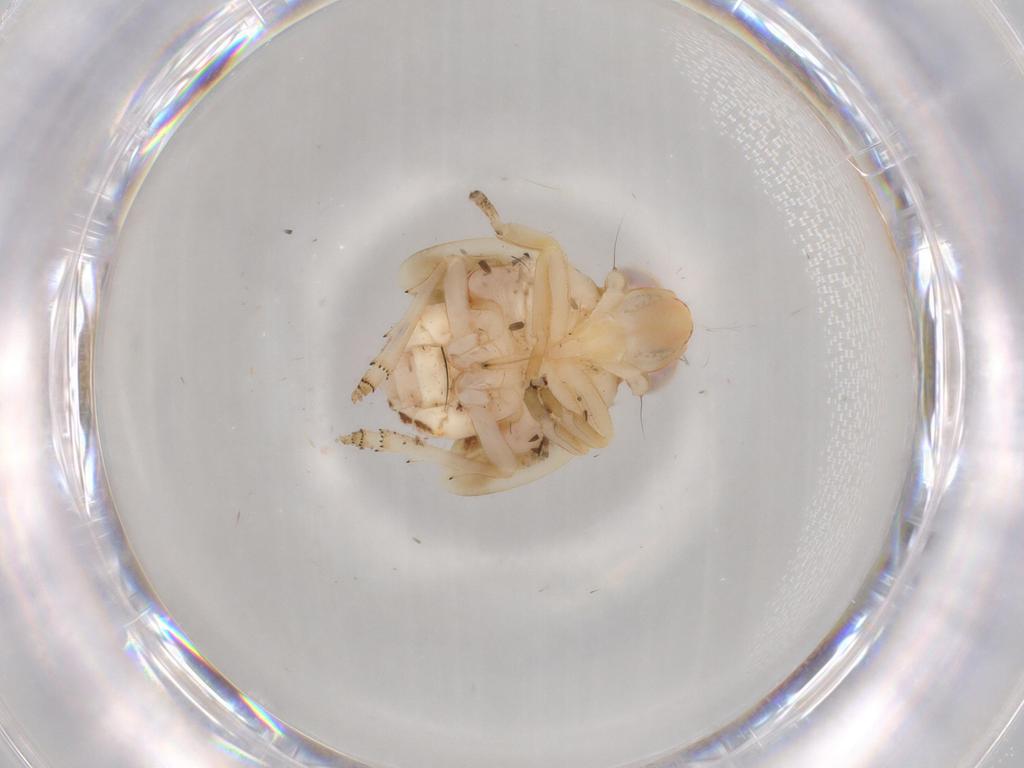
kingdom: Animalia
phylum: Arthropoda
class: Insecta
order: Hemiptera
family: Nogodinidae
